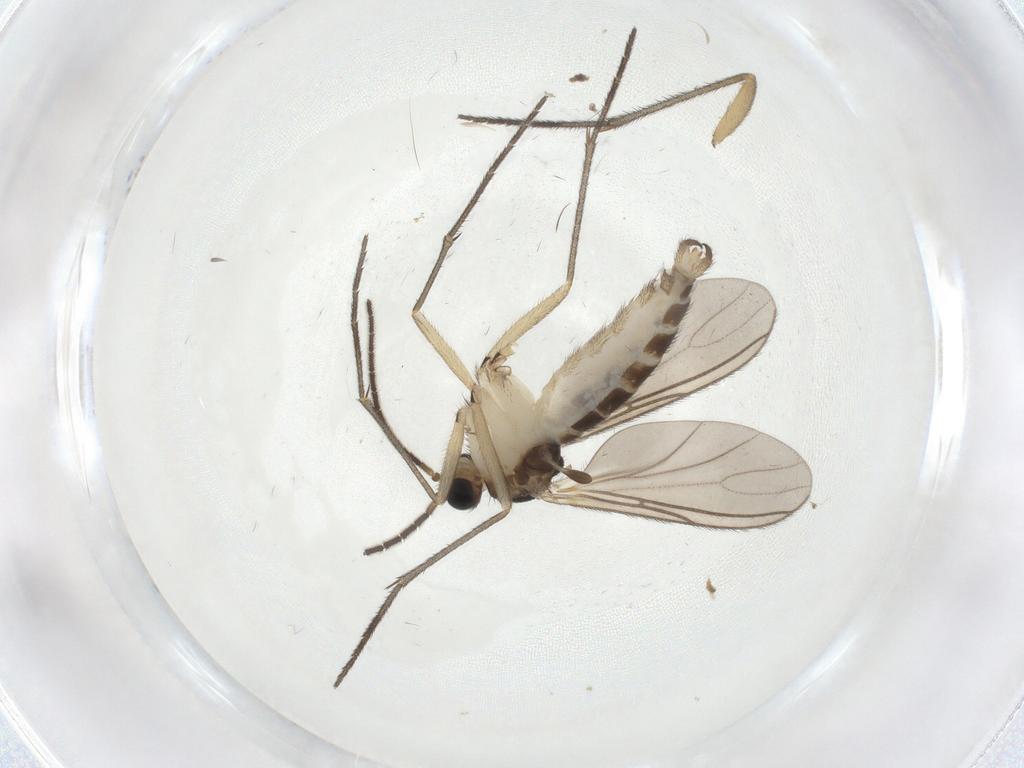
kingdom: Animalia
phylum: Arthropoda
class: Insecta
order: Diptera
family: Sciaridae
